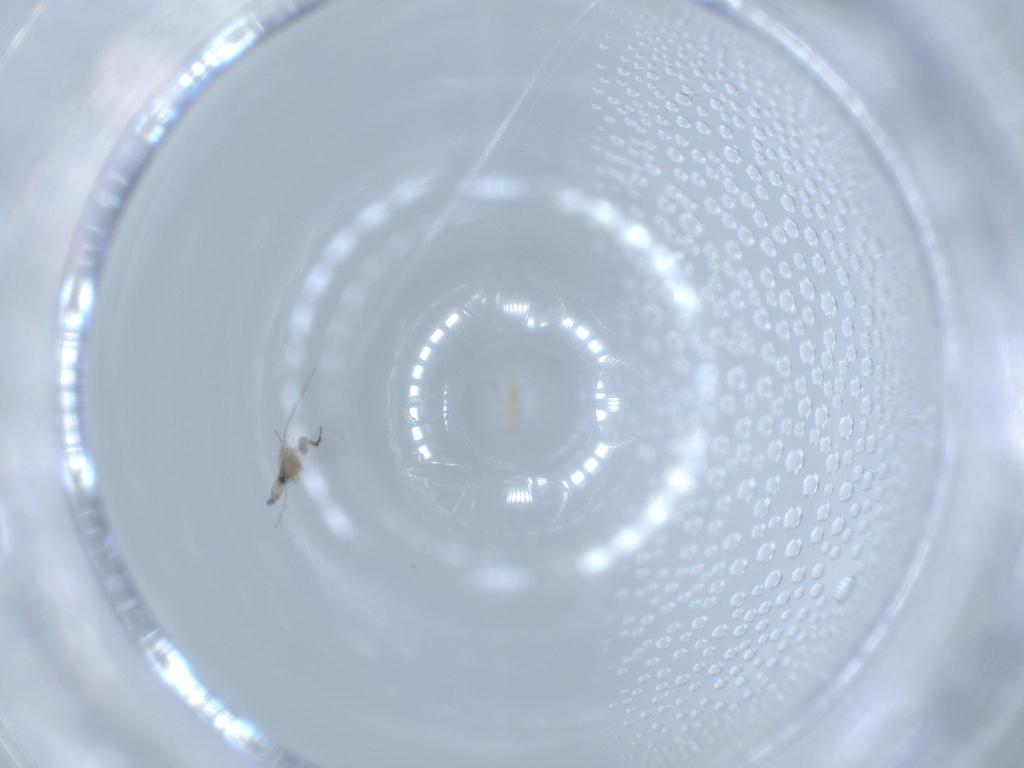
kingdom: Animalia
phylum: Arthropoda
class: Insecta
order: Diptera
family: Cecidomyiidae
